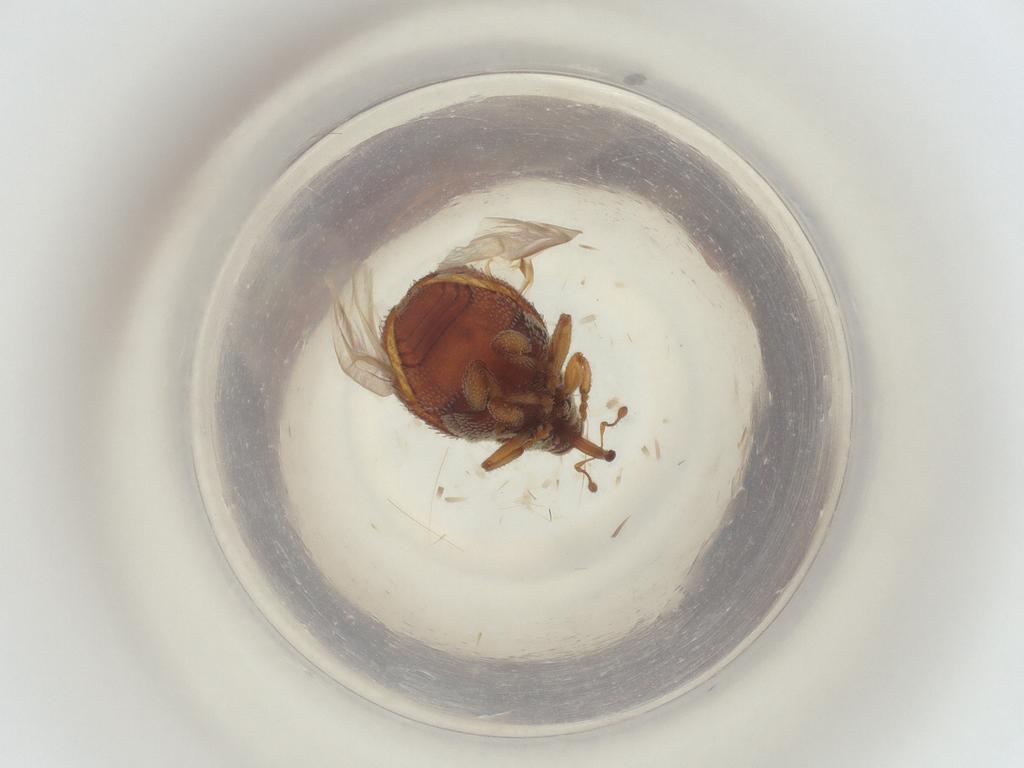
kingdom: Animalia
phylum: Arthropoda
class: Insecta
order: Coleoptera
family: Curculionidae
